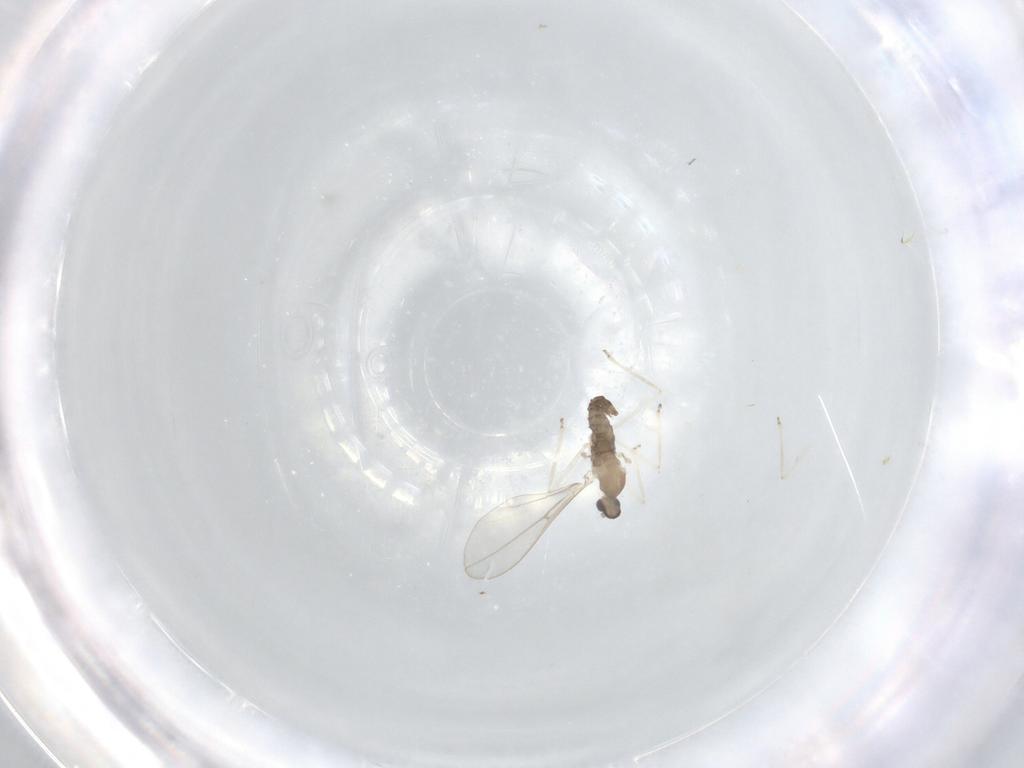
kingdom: Animalia
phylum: Arthropoda
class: Insecta
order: Diptera
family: Cecidomyiidae
